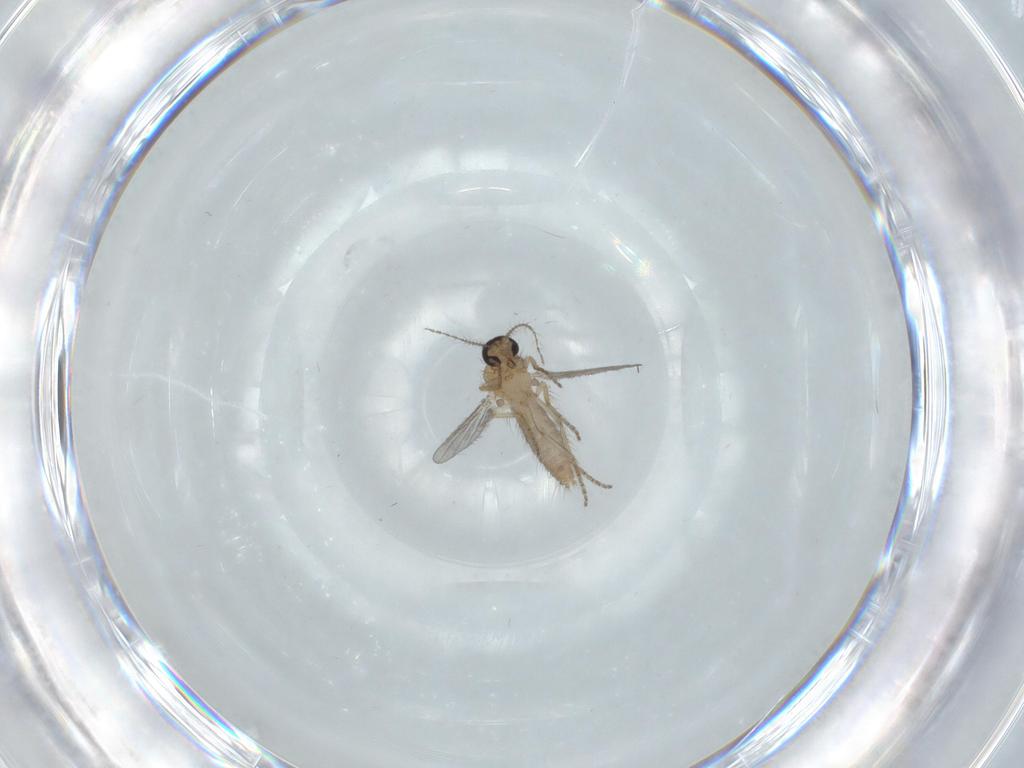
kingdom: Animalia
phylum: Arthropoda
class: Insecta
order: Diptera
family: Ceratopogonidae
